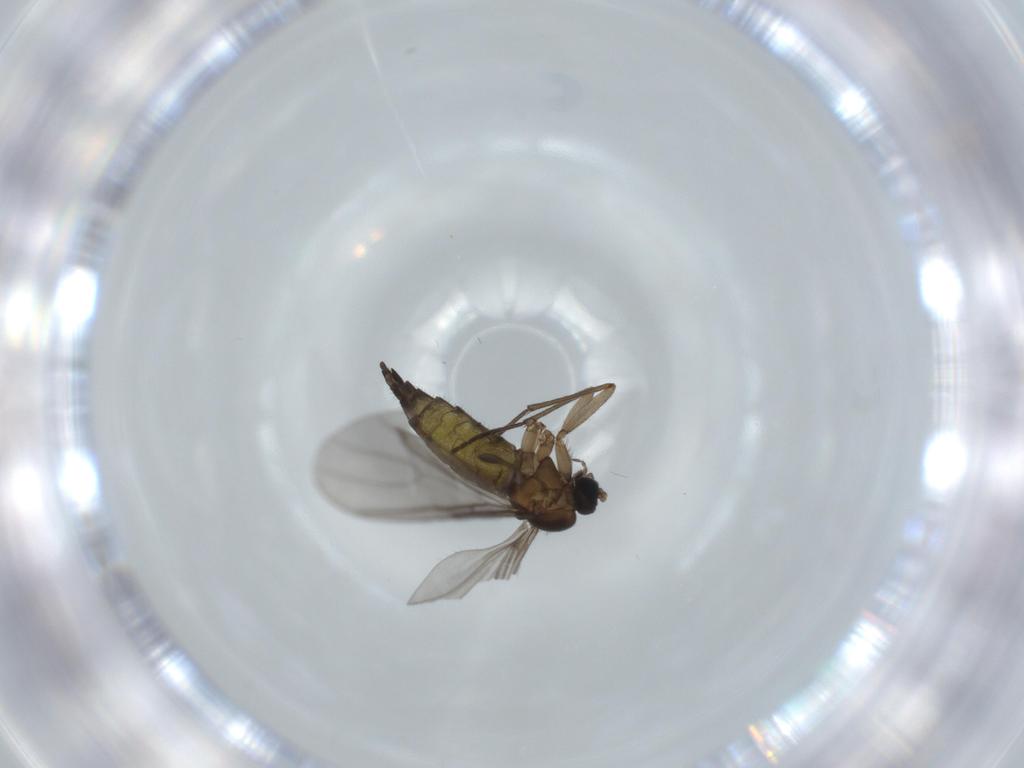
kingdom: Animalia
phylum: Arthropoda
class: Insecta
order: Diptera
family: Sciaridae
